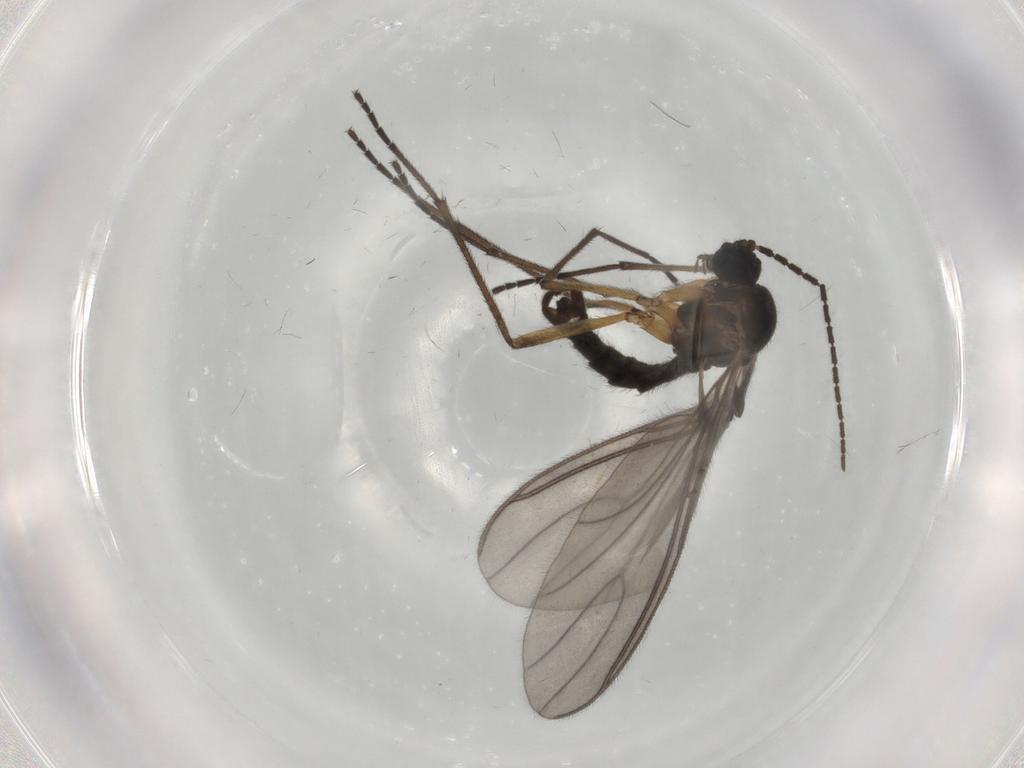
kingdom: Animalia
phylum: Arthropoda
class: Insecta
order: Diptera
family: Sciaridae
